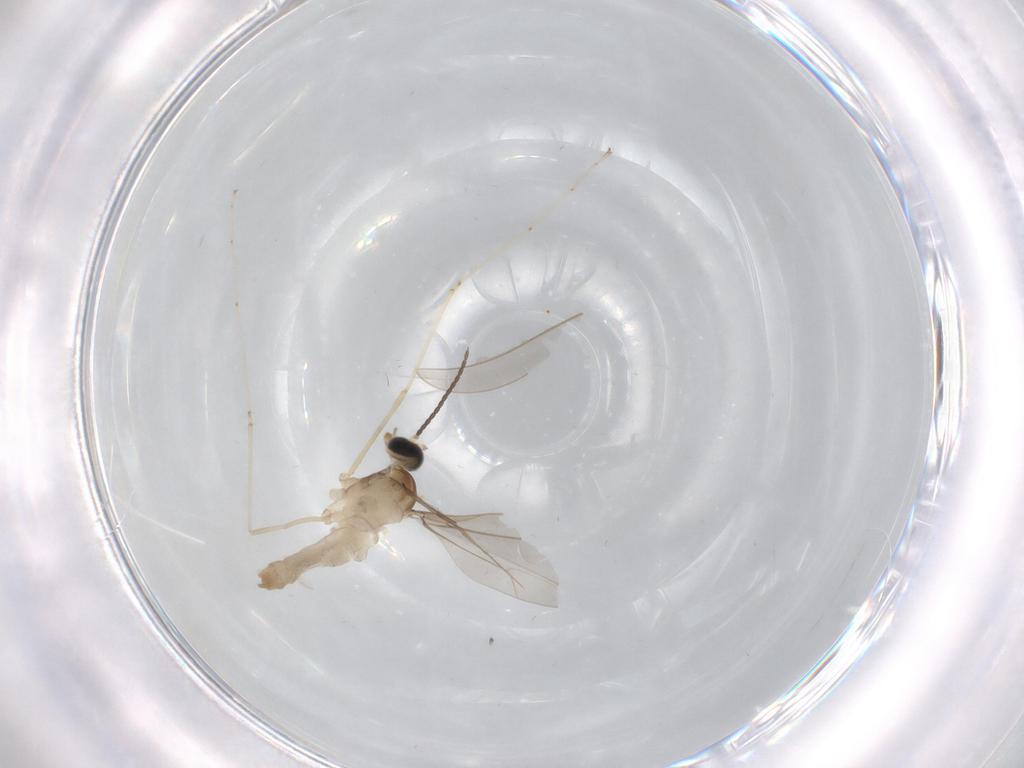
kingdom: Animalia
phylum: Arthropoda
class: Insecta
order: Diptera
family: Cecidomyiidae
